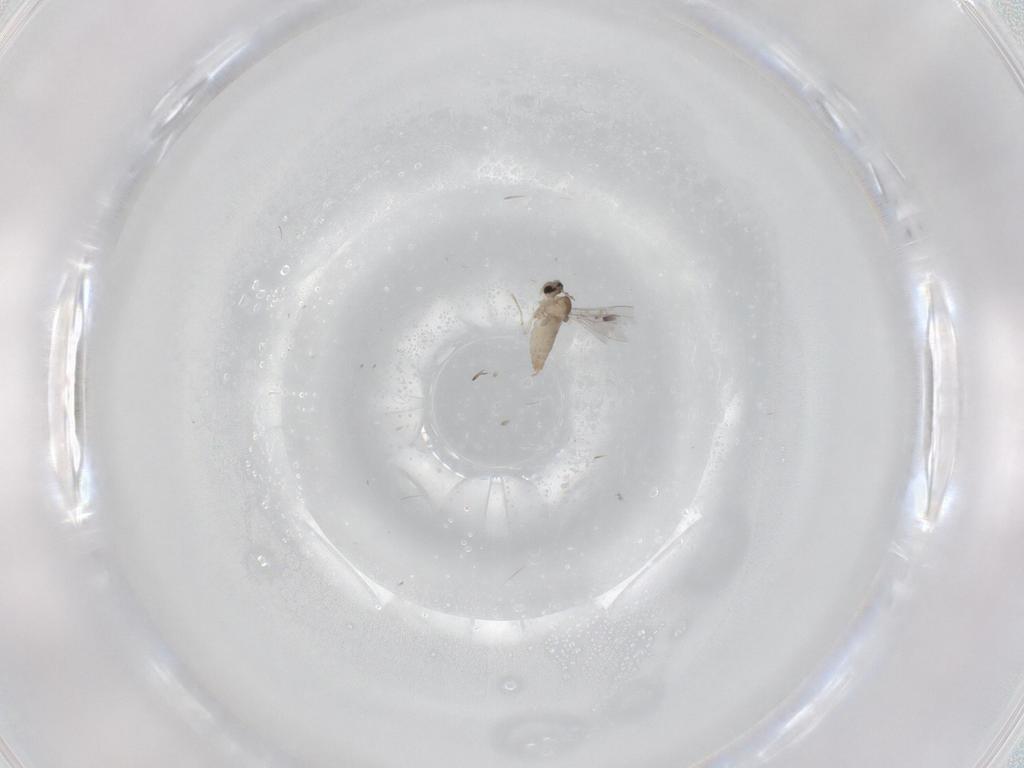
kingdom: Animalia
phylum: Arthropoda
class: Insecta
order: Diptera
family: Cecidomyiidae
